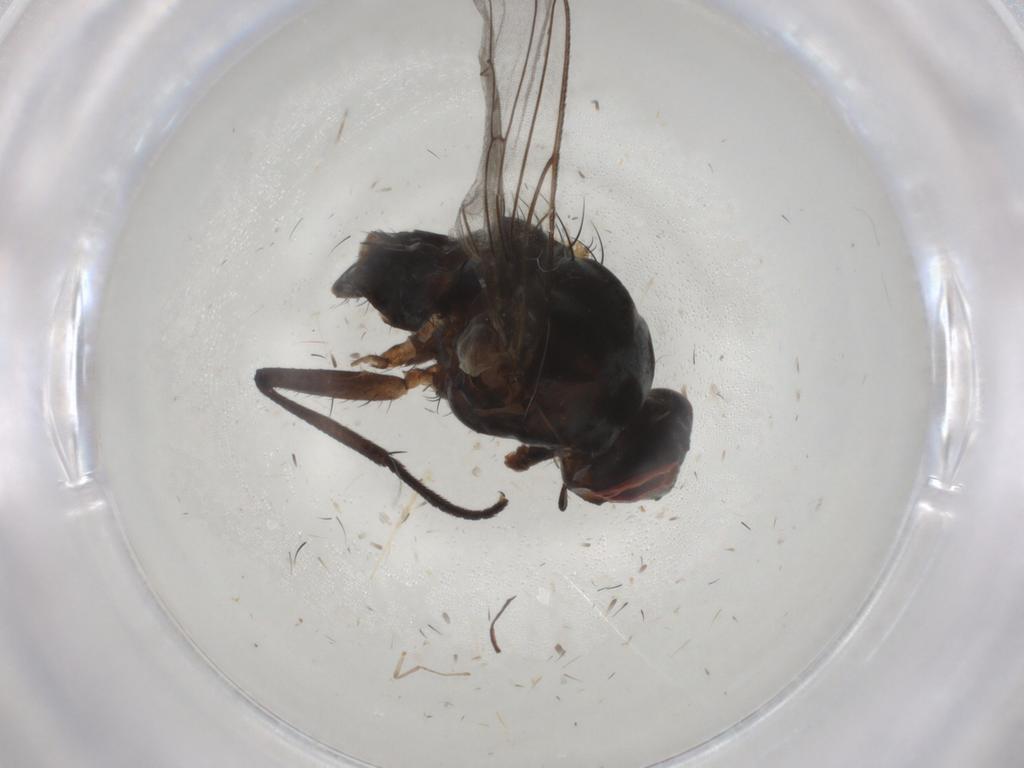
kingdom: Animalia
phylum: Arthropoda
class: Insecta
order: Diptera
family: Anthomyiidae
